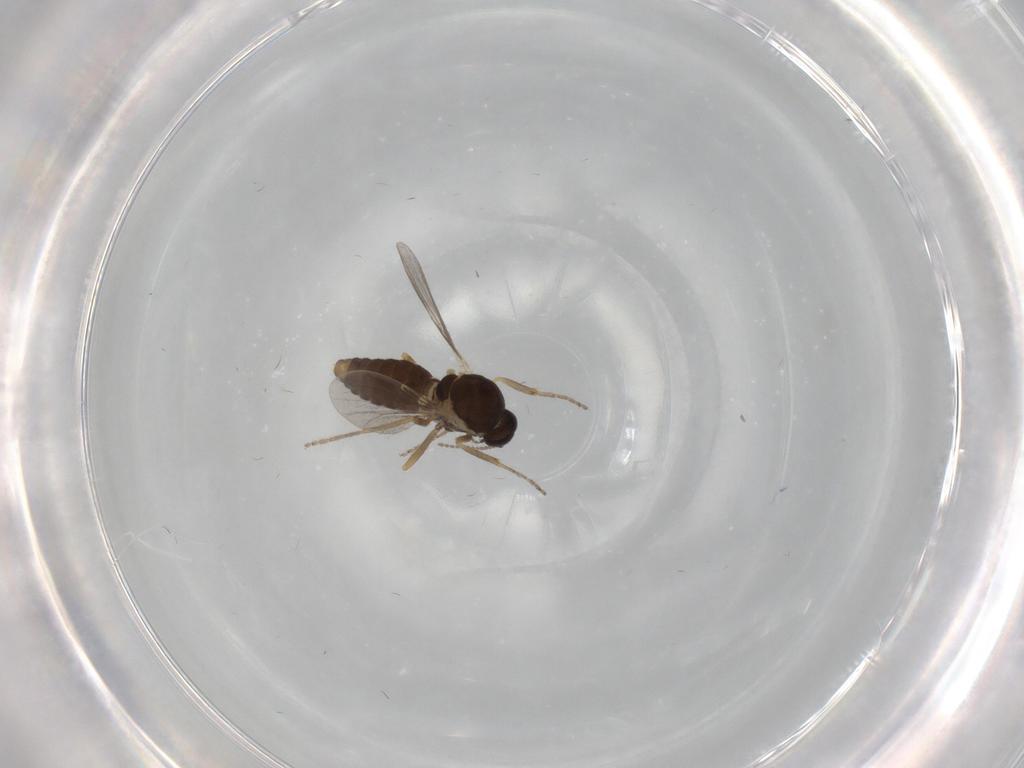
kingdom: Animalia
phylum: Arthropoda
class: Insecta
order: Diptera
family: Ceratopogonidae
